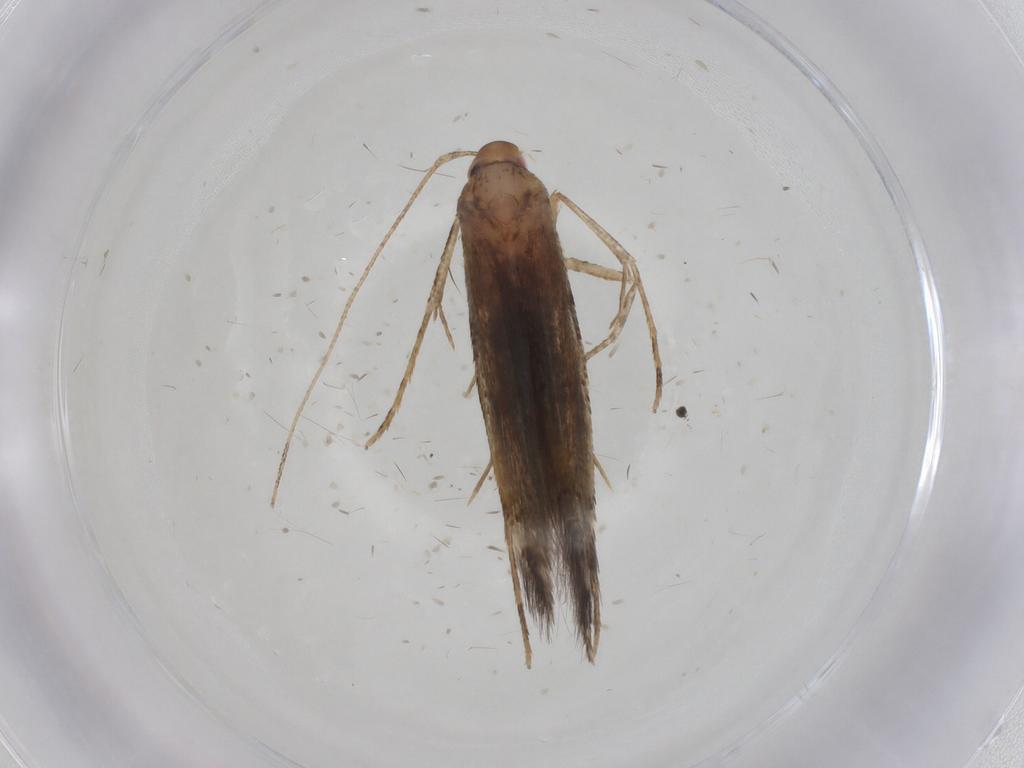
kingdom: Animalia
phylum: Arthropoda
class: Insecta
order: Lepidoptera
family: Cosmopterigidae
